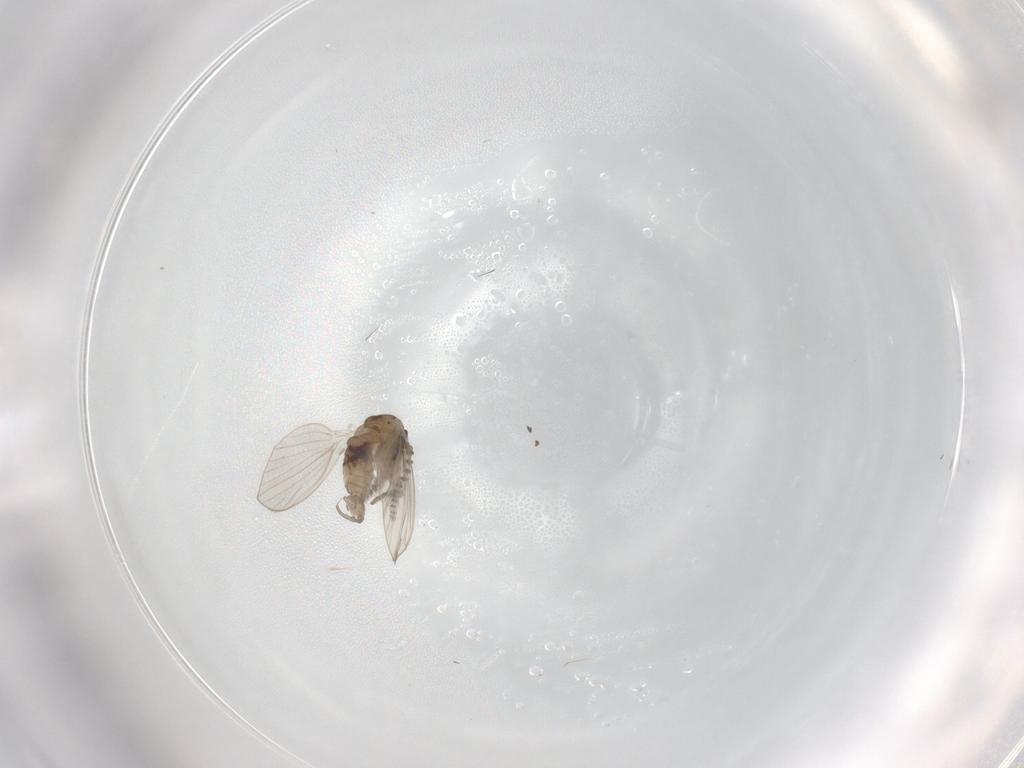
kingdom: Animalia
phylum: Arthropoda
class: Insecta
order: Diptera
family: Psychodidae
